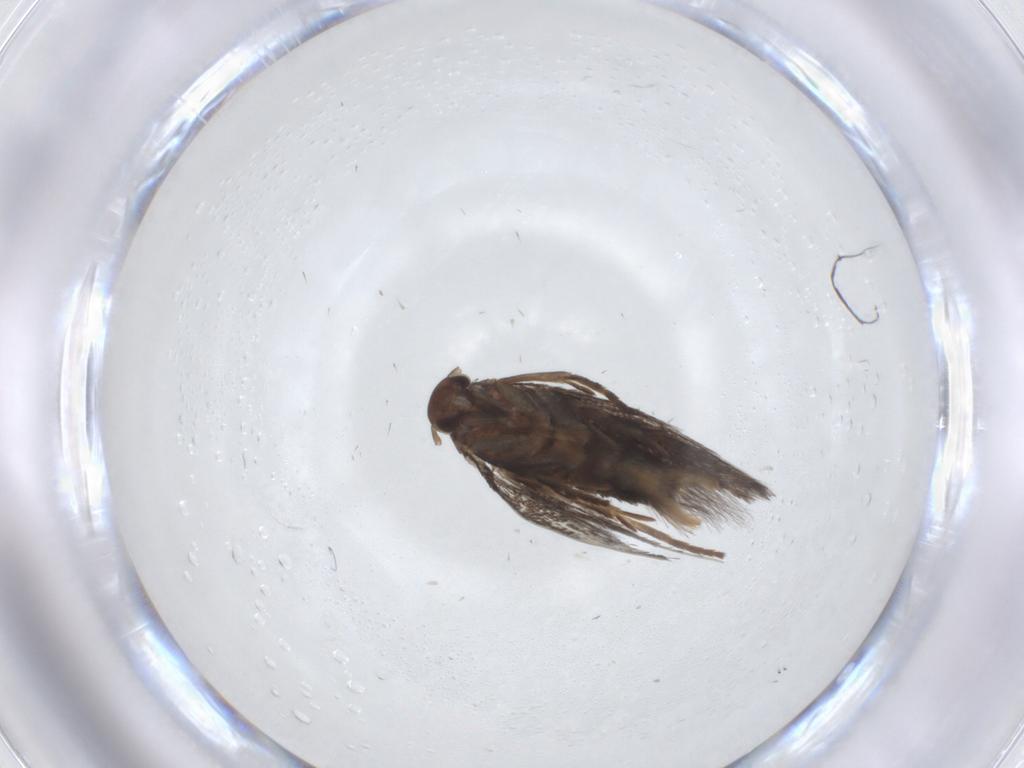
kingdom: Animalia
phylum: Arthropoda
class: Insecta
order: Lepidoptera
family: Elachistidae
